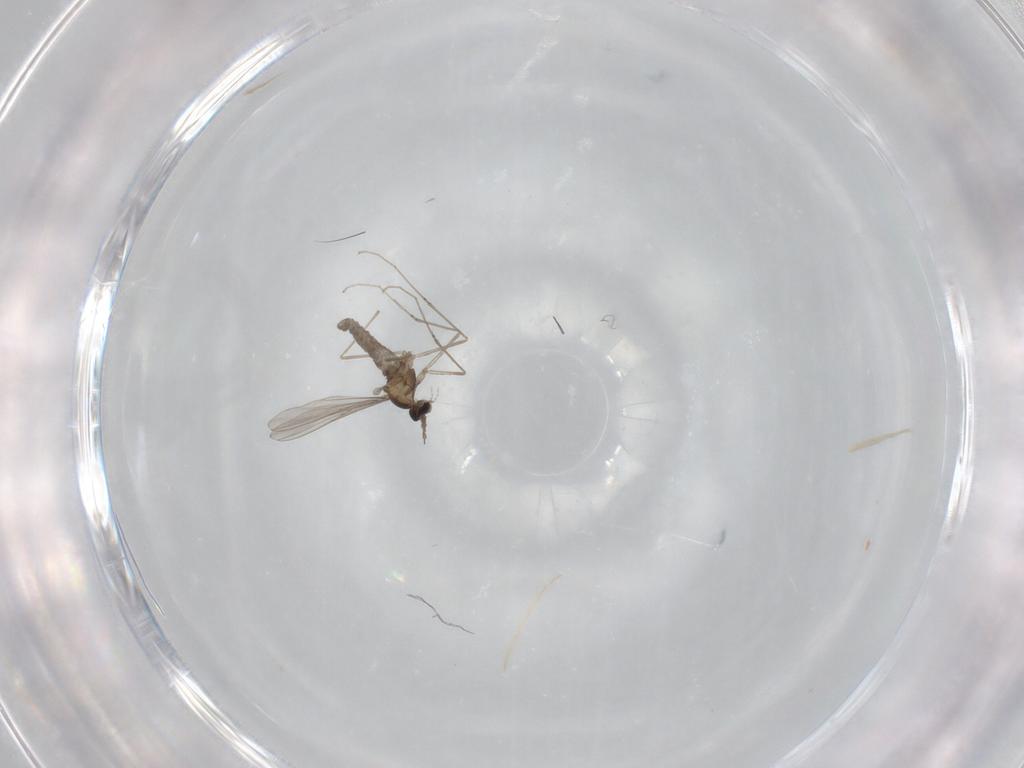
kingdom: Animalia
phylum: Arthropoda
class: Insecta
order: Diptera
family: Cecidomyiidae
